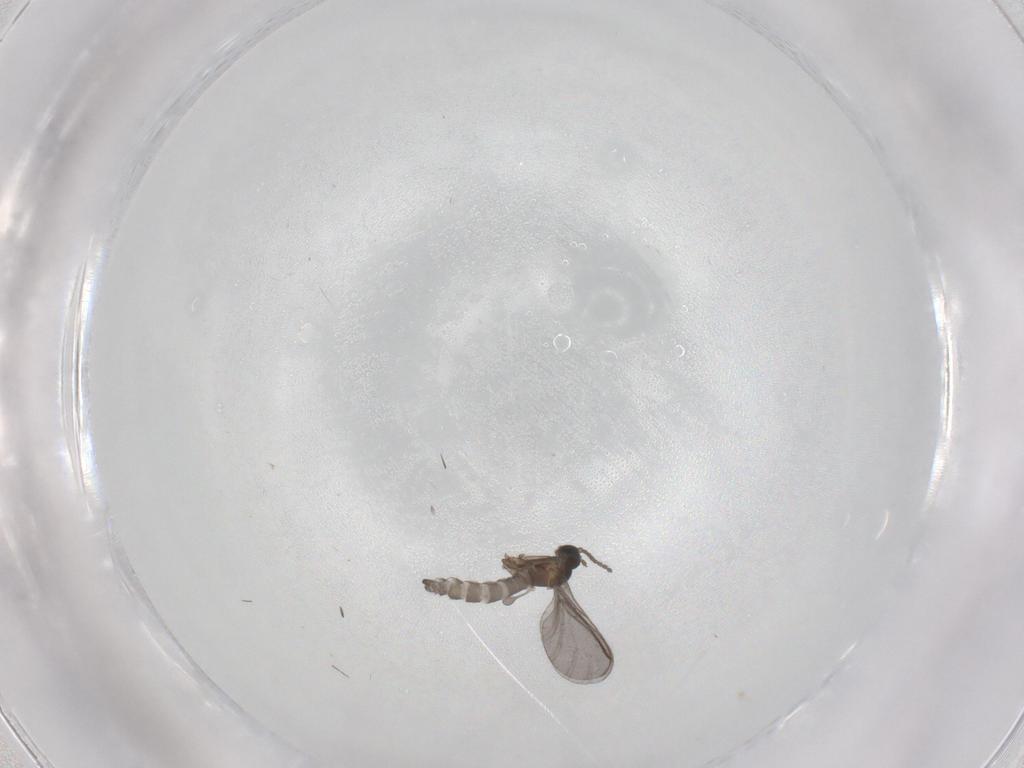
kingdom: Animalia
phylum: Arthropoda
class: Insecta
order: Diptera
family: Sciaridae
